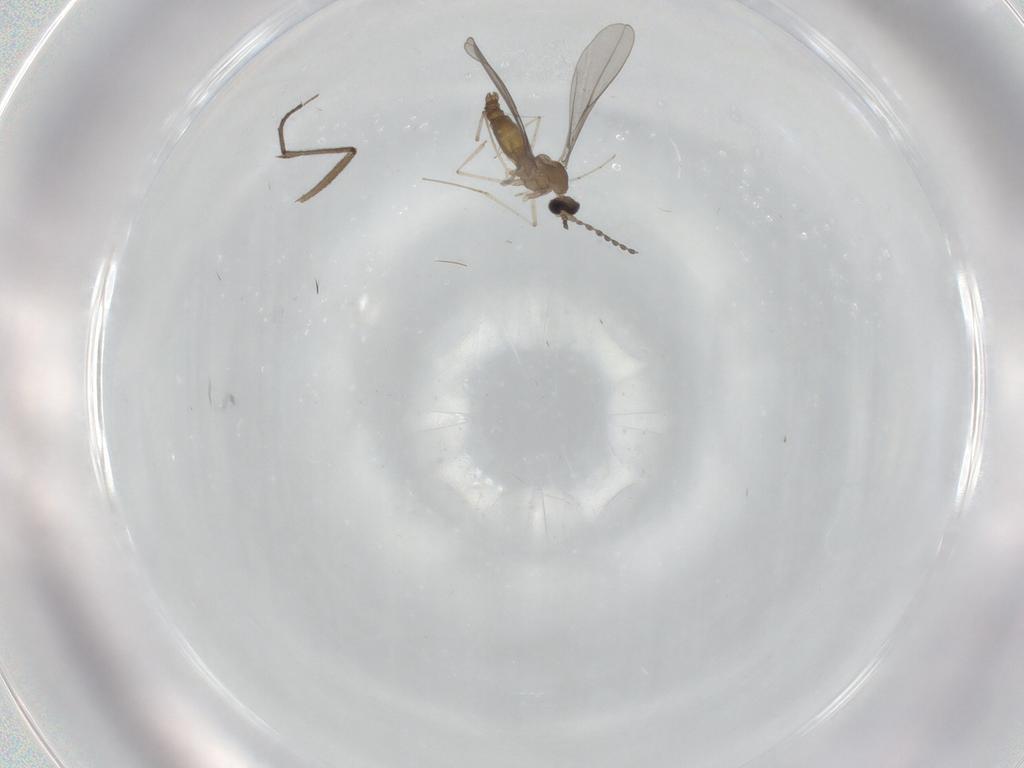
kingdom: Animalia
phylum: Arthropoda
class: Insecta
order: Diptera
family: Sciaridae
